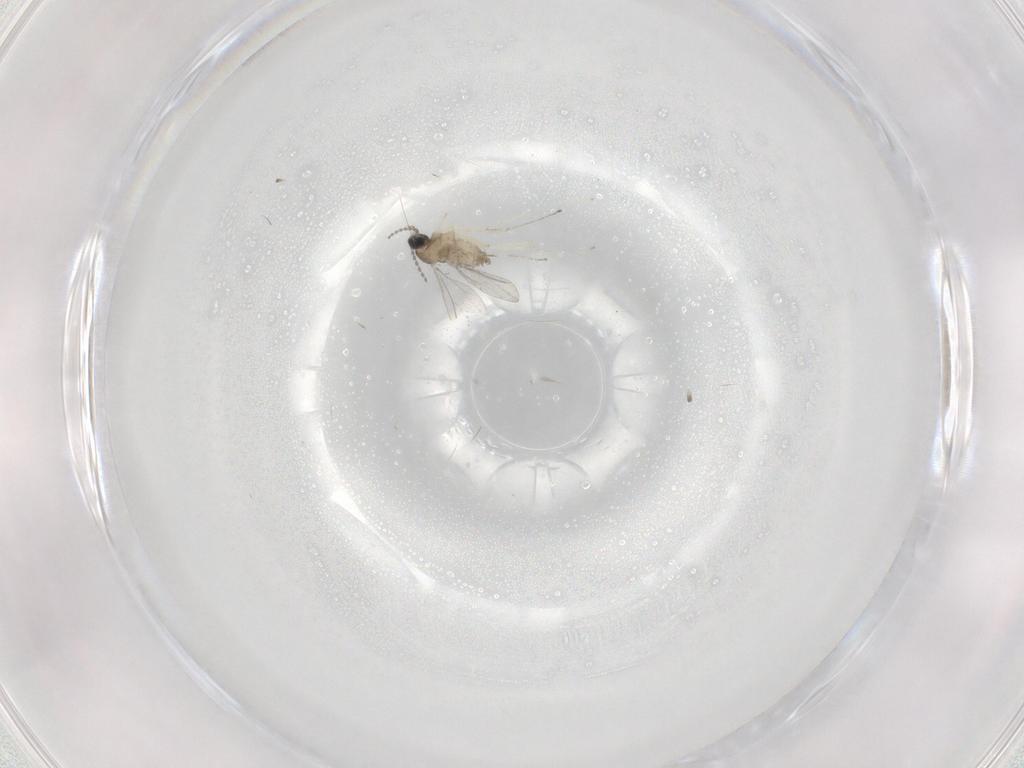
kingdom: Animalia
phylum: Arthropoda
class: Insecta
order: Diptera
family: Cecidomyiidae
